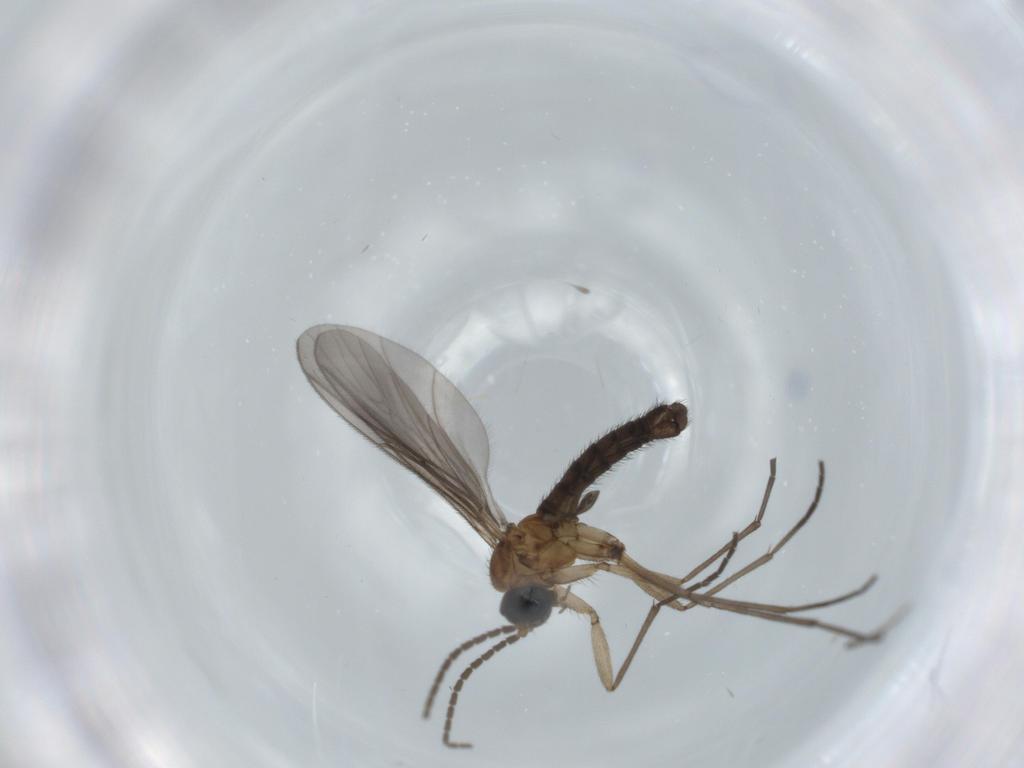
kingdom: Animalia
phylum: Arthropoda
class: Insecta
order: Diptera
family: Sciaridae
